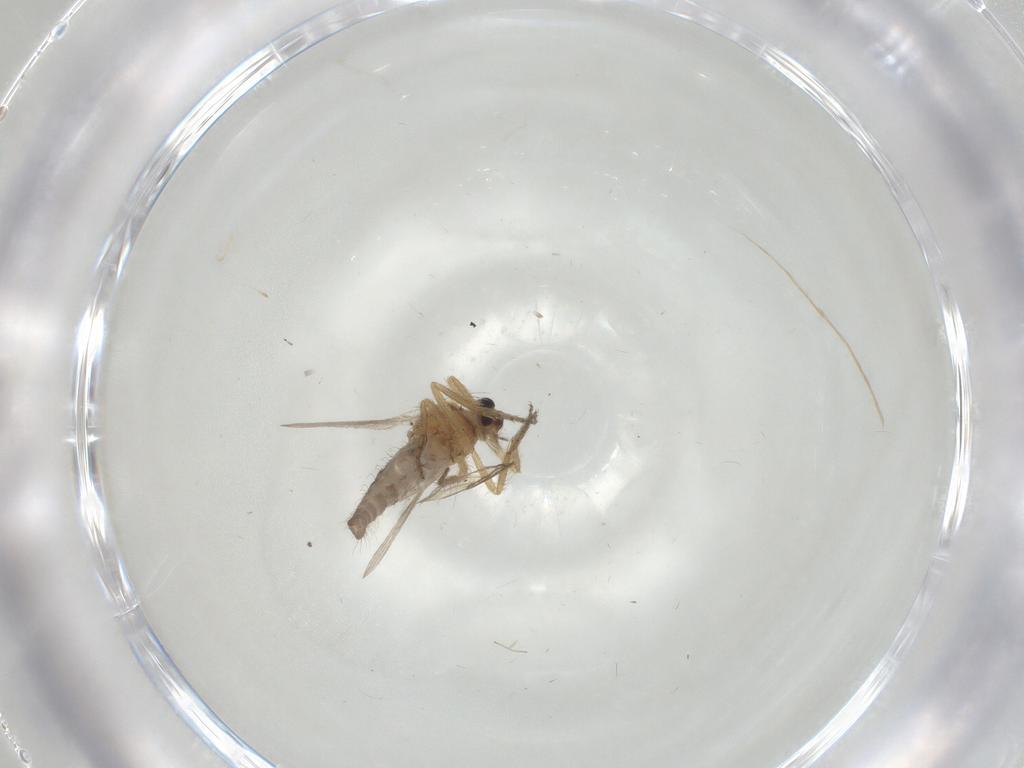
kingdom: Animalia
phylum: Arthropoda
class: Insecta
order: Diptera
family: Ceratopogonidae
